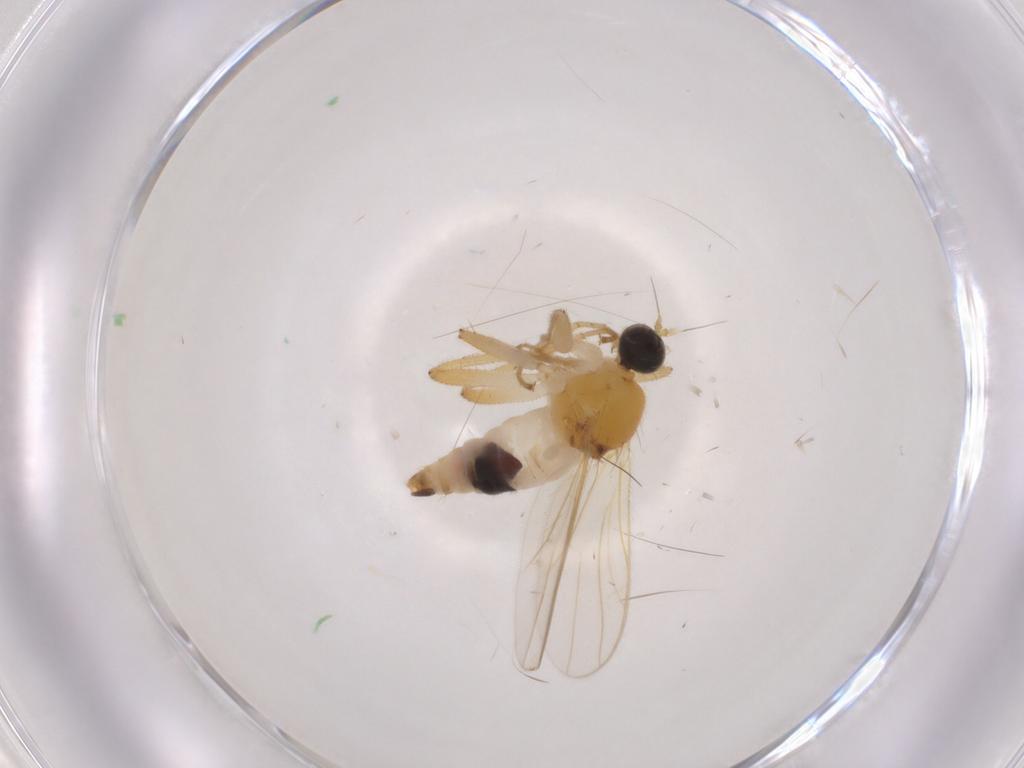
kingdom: Animalia
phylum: Arthropoda
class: Insecta
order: Diptera
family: Hybotidae
